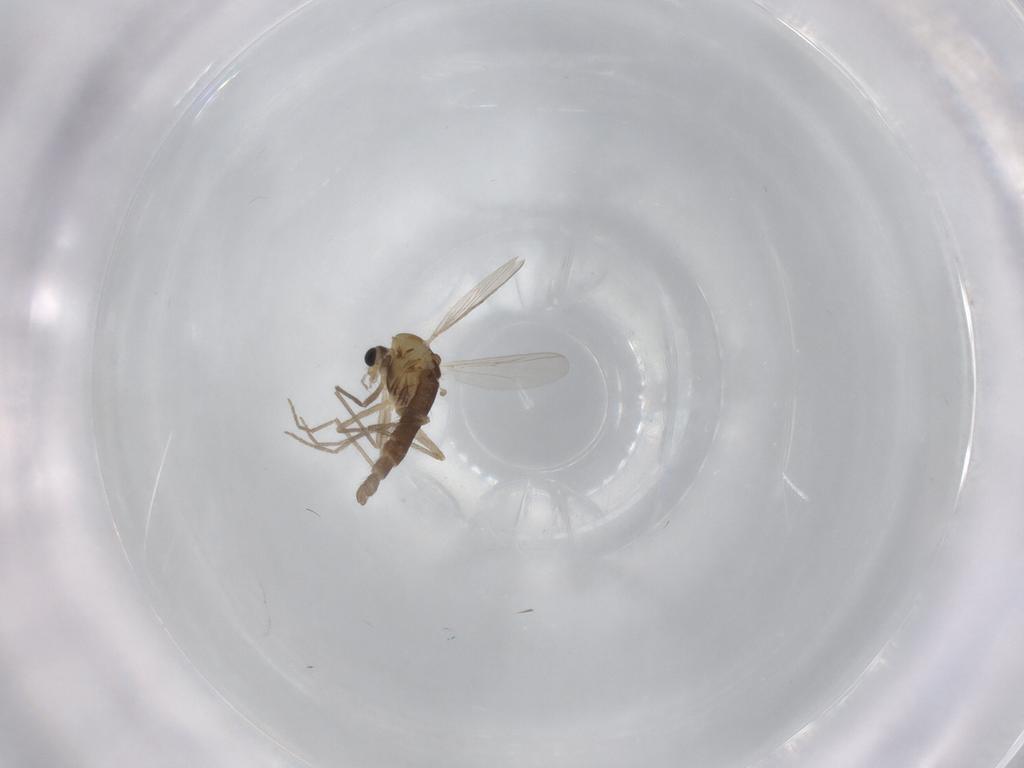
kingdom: Animalia
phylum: Arthropoda
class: Insecta
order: Diptera
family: Chironomidae
